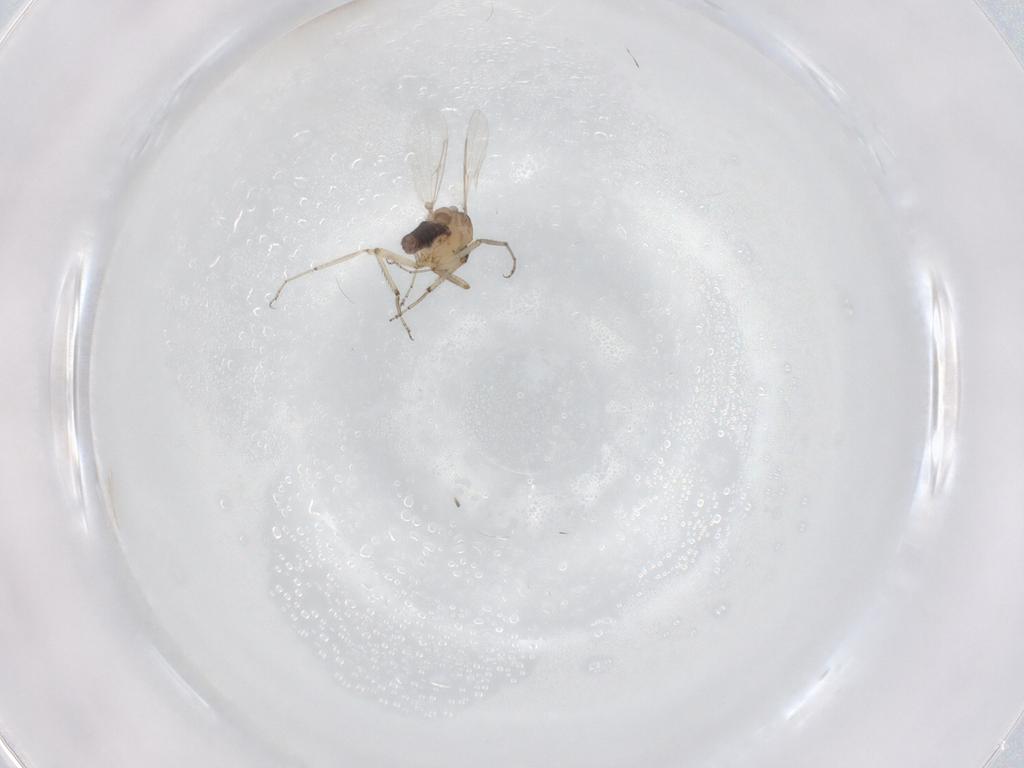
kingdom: Animalia
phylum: Arthropoda
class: Insecta
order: Diptera
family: Ceratopogonidae
